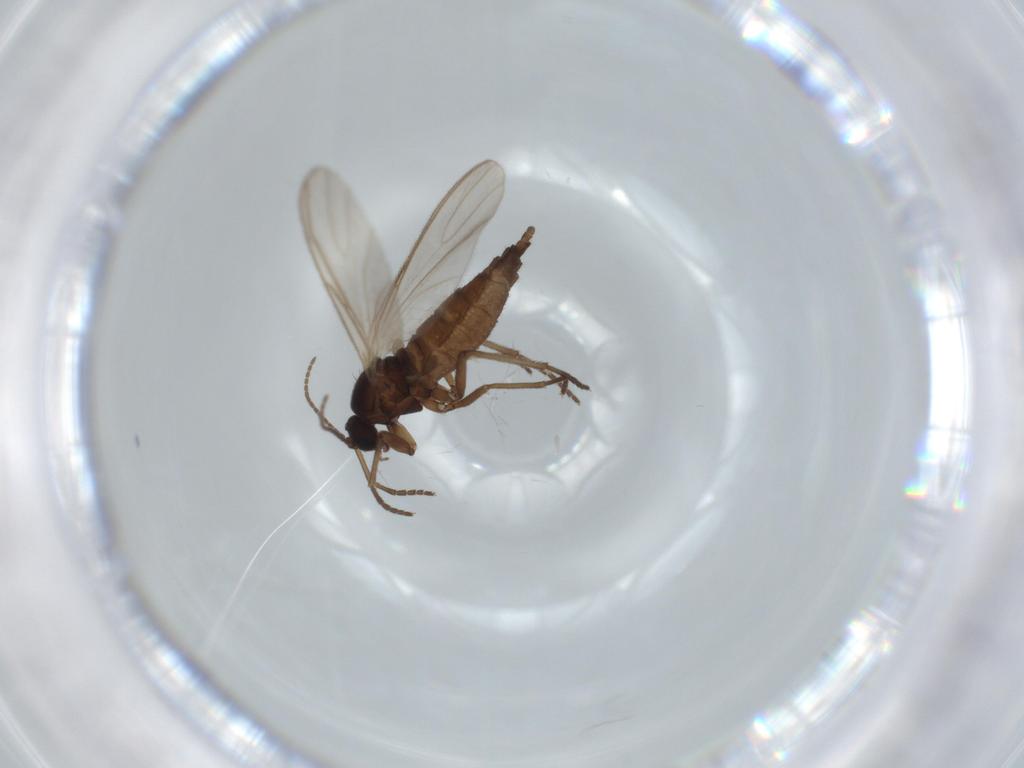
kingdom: Animalia
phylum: Arthropoda
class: Insecta
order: Diptera
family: Sciaridae
